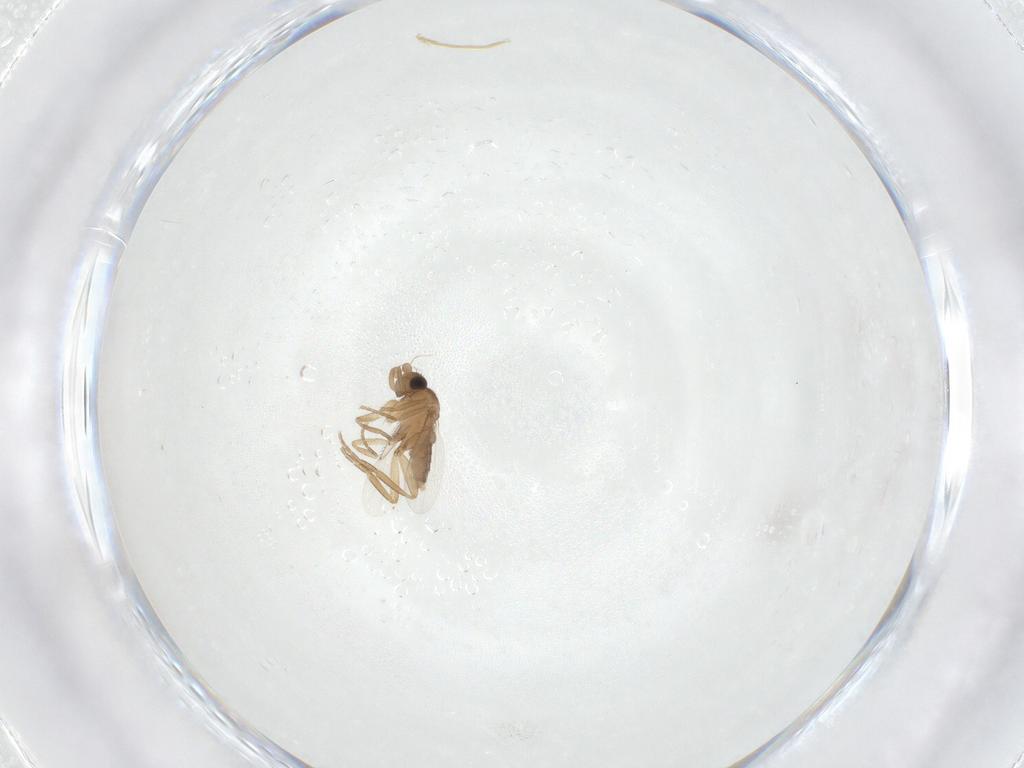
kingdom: Animalia
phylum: Arthropoda
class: Insecta
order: Diptera
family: Phoridae
